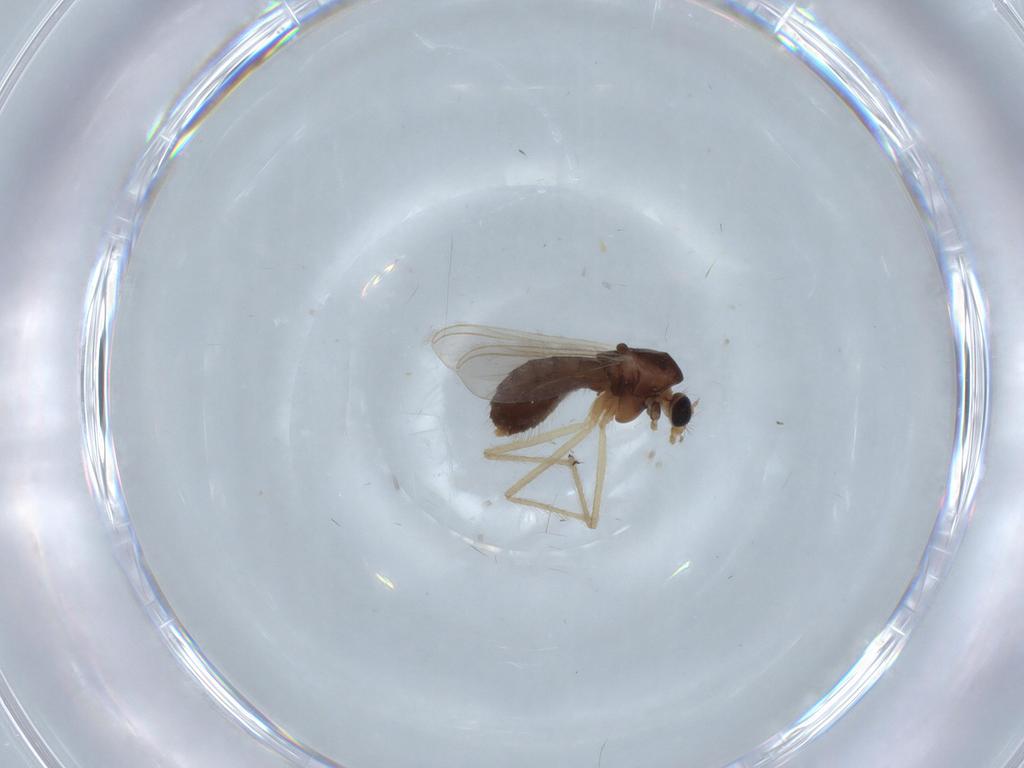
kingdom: Animalia
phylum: Arthropoda
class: Insecta
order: Diptera
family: Chironomidae
